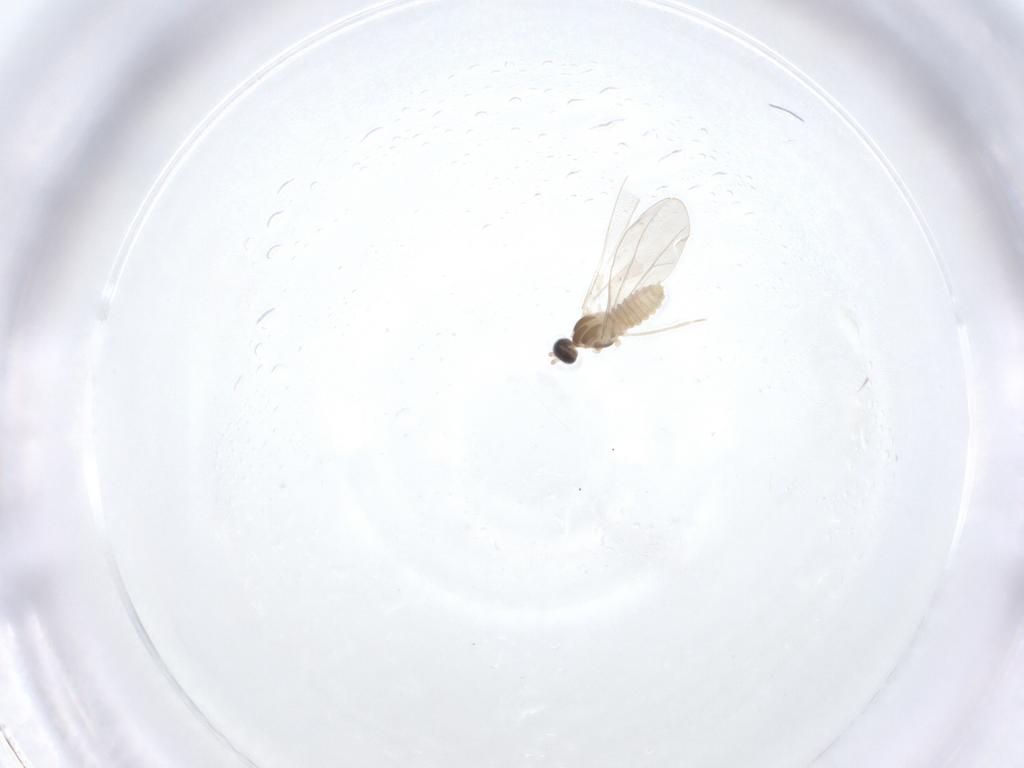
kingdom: Animalia
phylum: Arthropoda
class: Insecta
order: Diptera
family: Cecidomyiidae
